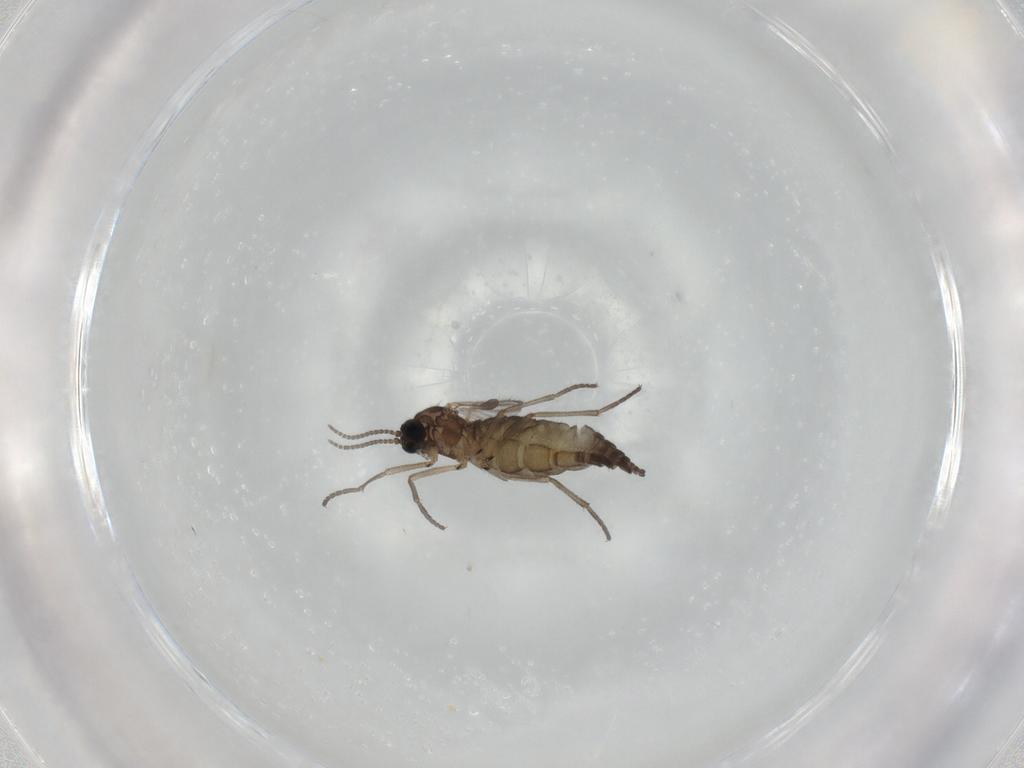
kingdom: Animalia
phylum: Arthropoda
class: Insecta
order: Diptera
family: Sciaridae
